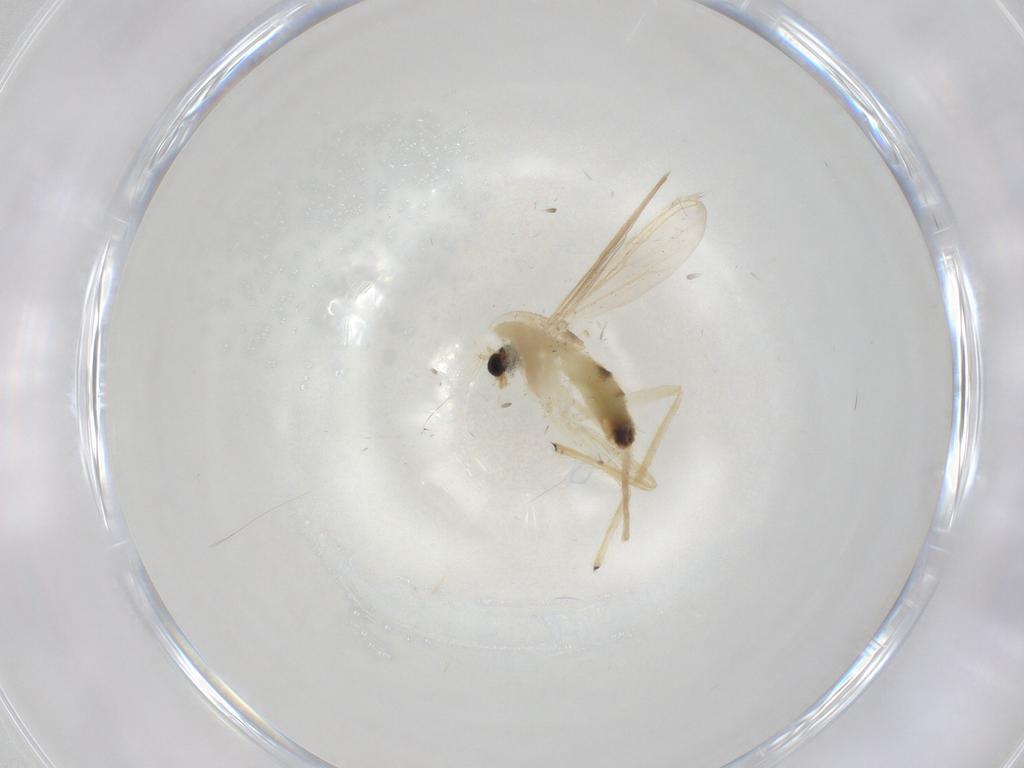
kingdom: Animalia
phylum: Arthropoda
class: Insecta
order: Diptera
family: Chironomidae
